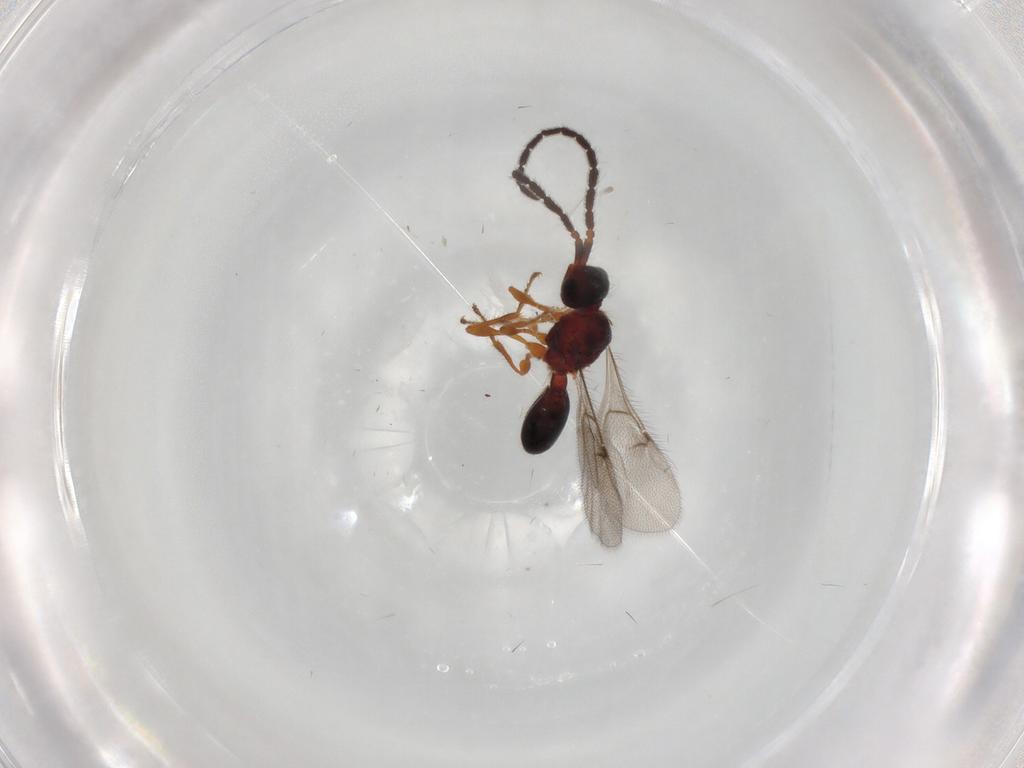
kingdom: Animalia
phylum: Arthropoda
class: Insecta
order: Hymenoptera
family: Diapriidae
